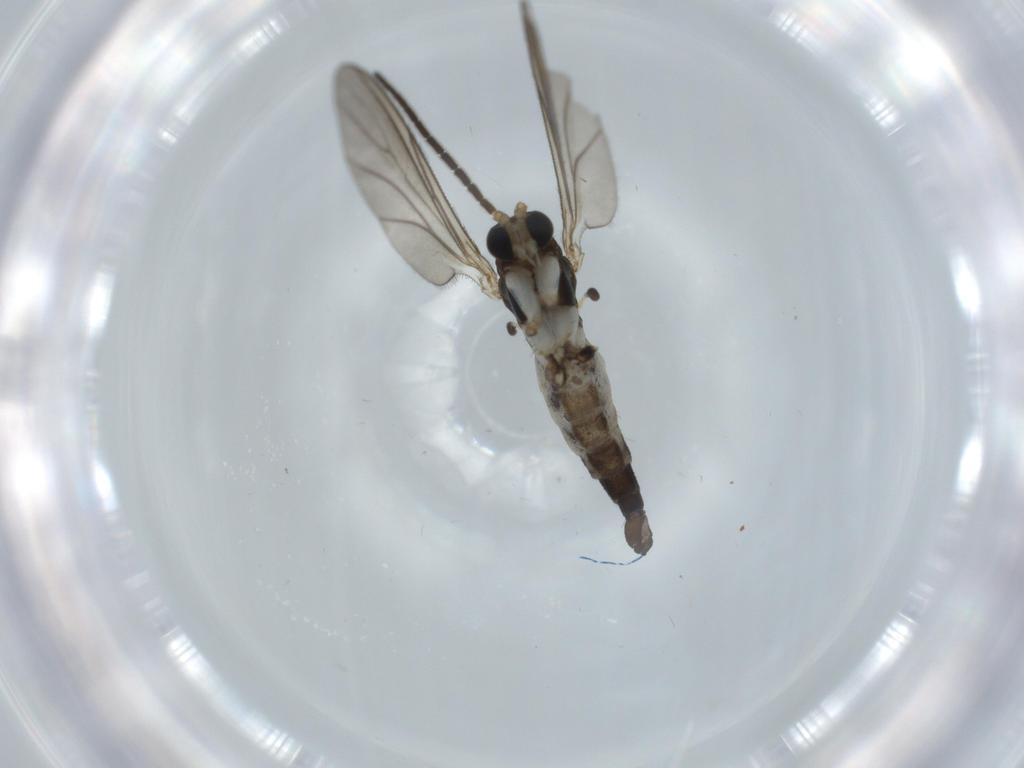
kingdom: Animalia
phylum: Arthropoda
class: Insecta
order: Diptera
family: Sciaridae
